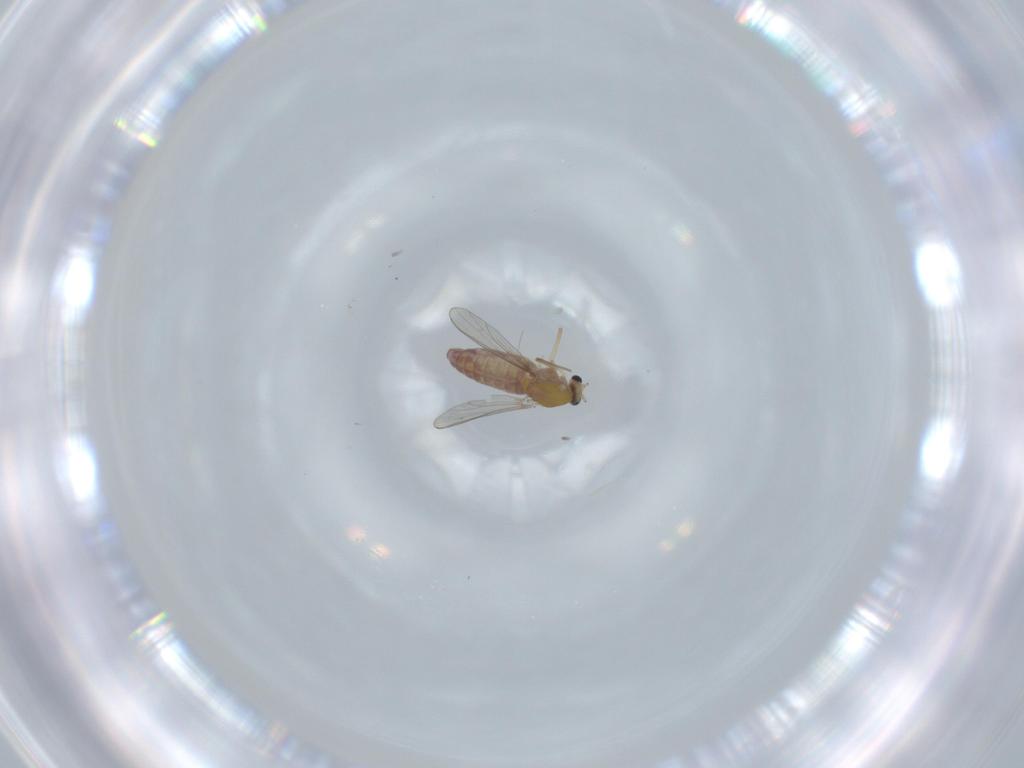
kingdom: Animalia
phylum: Arthropoda
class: Insecta
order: Diptera
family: Chironomidae
